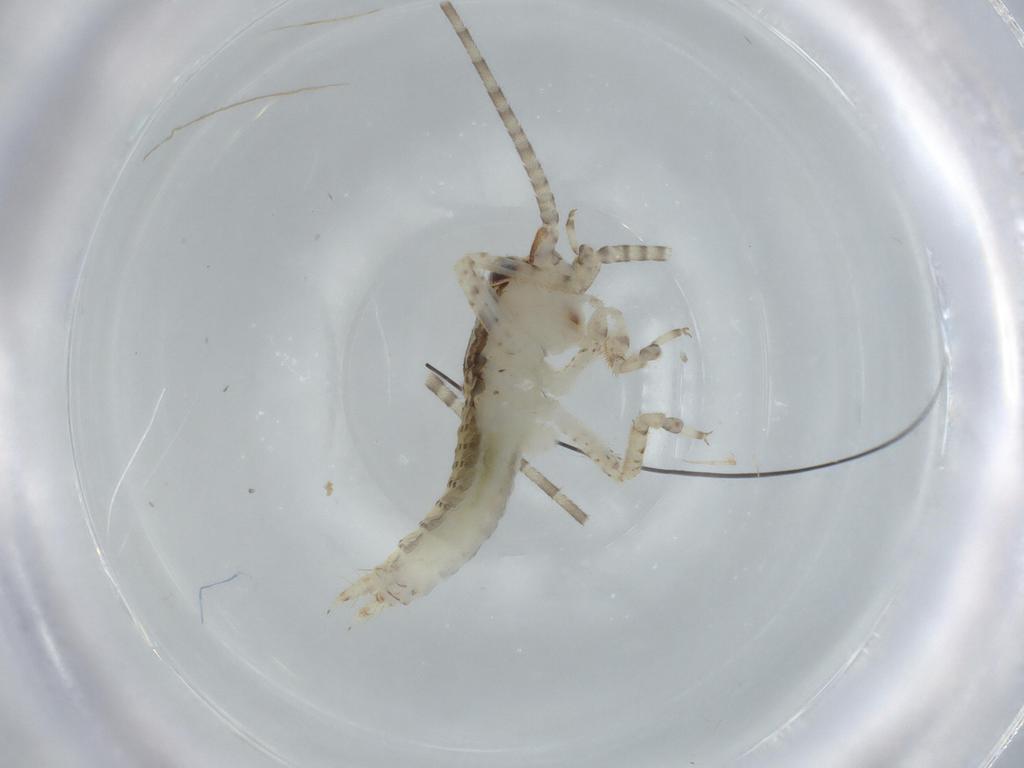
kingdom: Animalia
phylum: Arthropoda
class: Insecta
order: Orthoptera
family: Gryllidae
